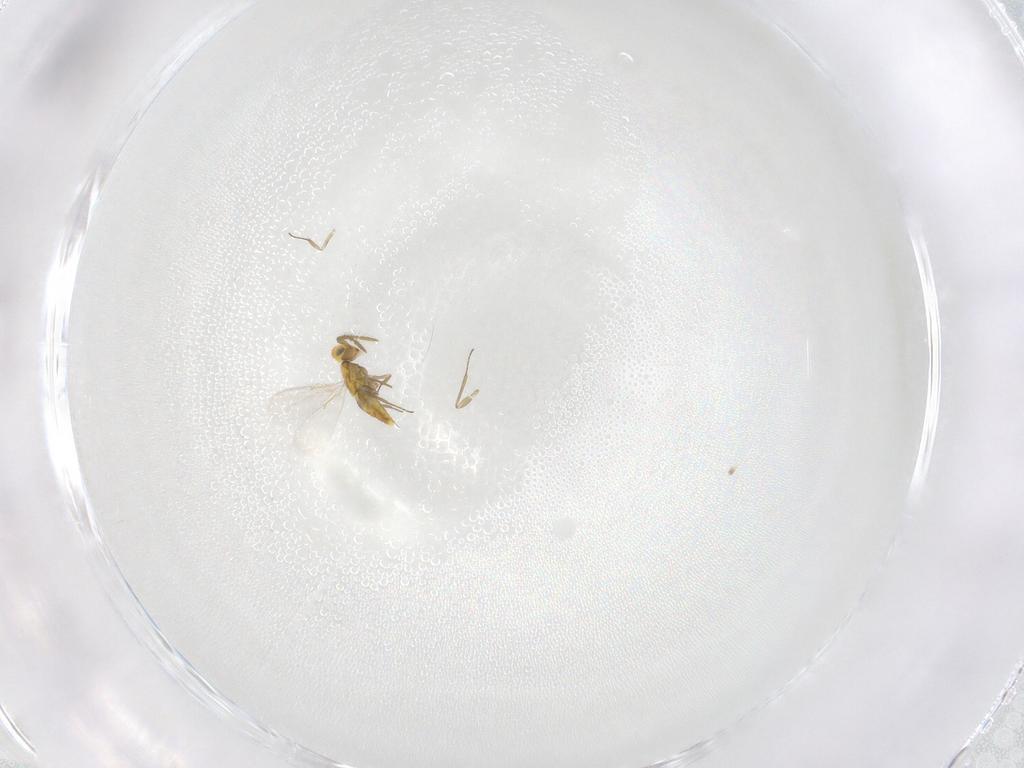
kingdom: Animalia
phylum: Arthropoda
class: Insecta
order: Hymenoptera
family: Aphelinidae
